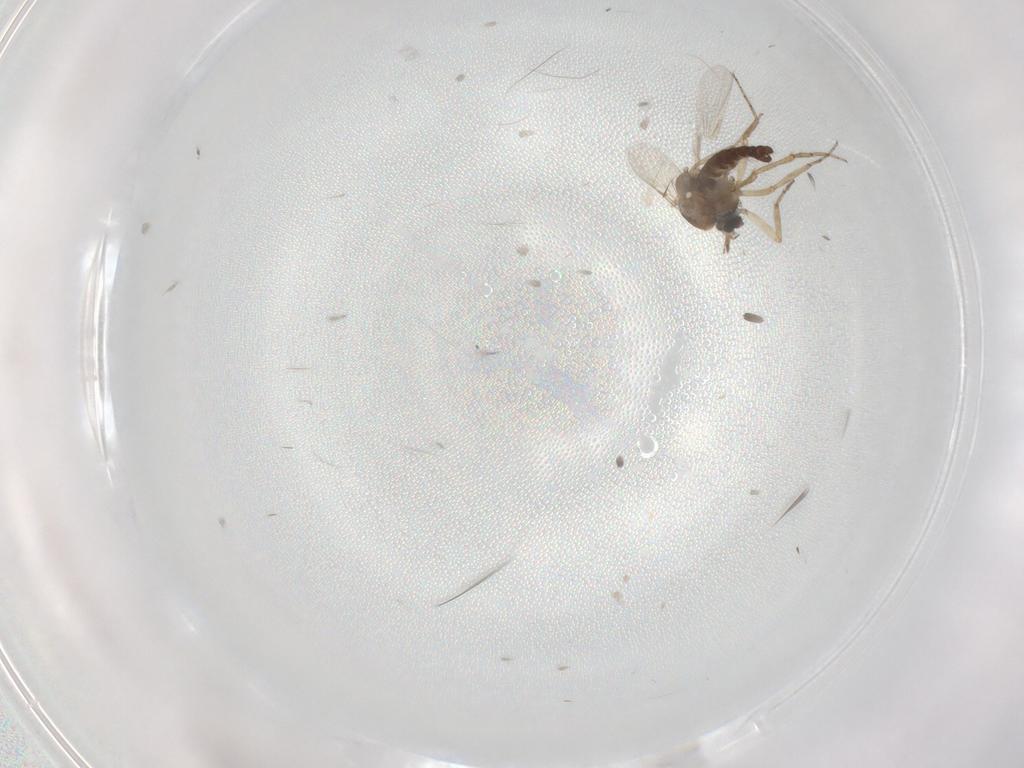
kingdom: Animalia
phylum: Arthropoda
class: Insecta
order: Diptera
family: Ceratopogonidae
